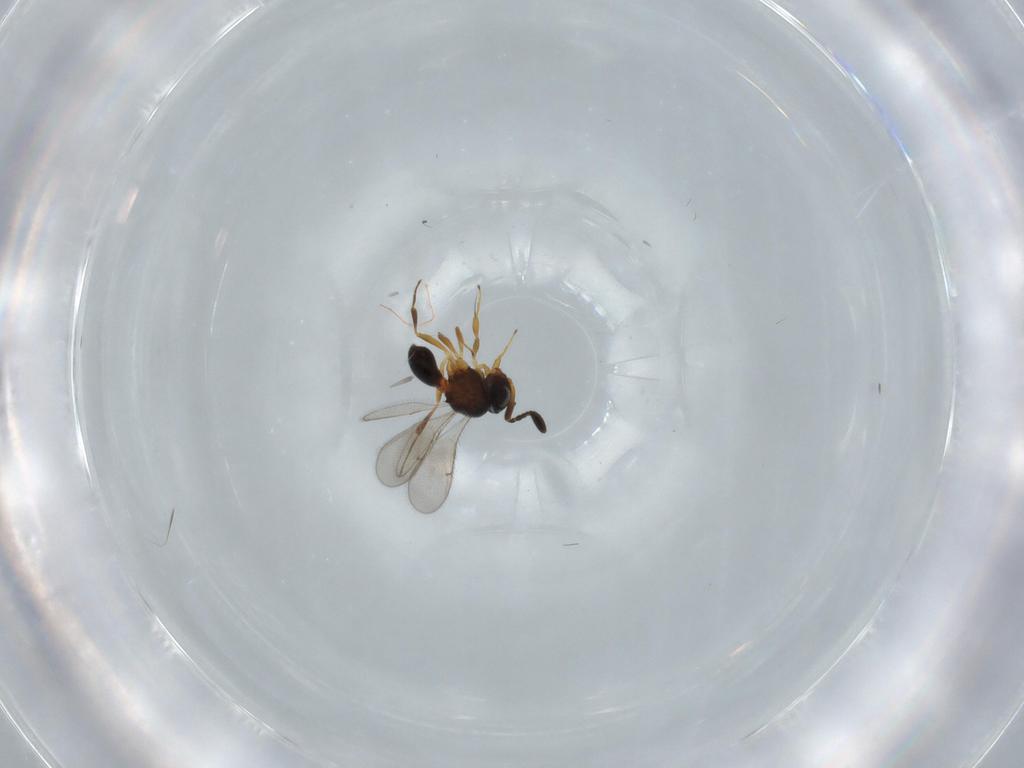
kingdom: Animalia
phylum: Arthropoda
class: Insecta
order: Hymenoptera
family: Scelionidae
